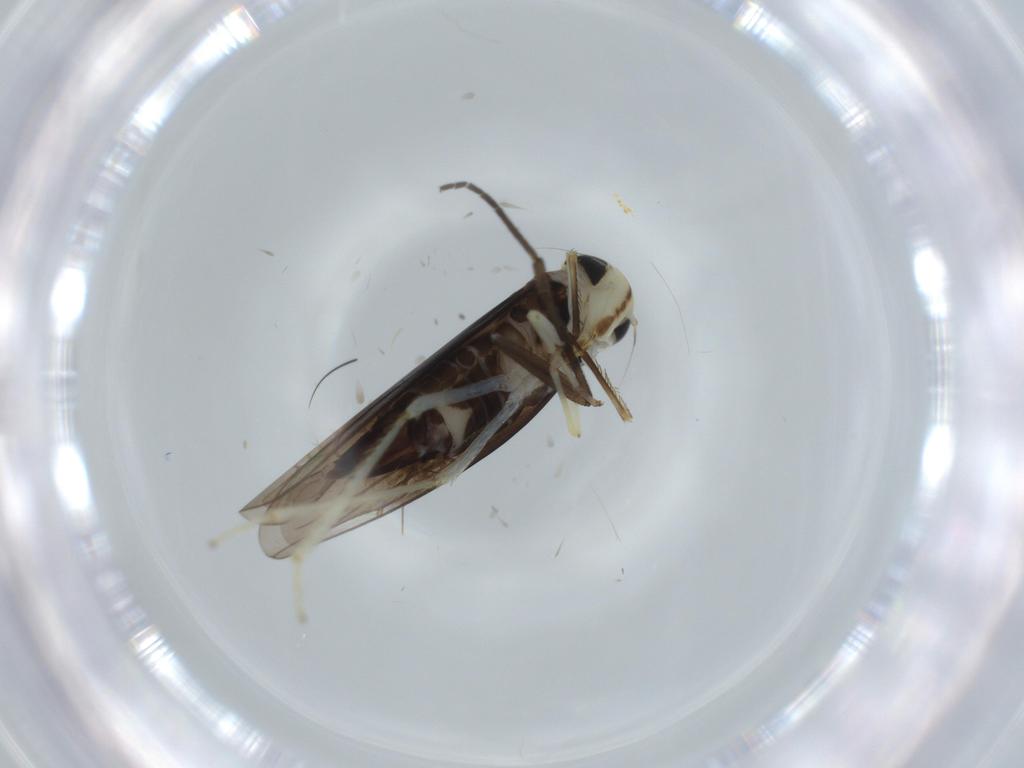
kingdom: Animalia
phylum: Arthropoda
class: Insecta
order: Hemiptera
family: Cicadellidae
